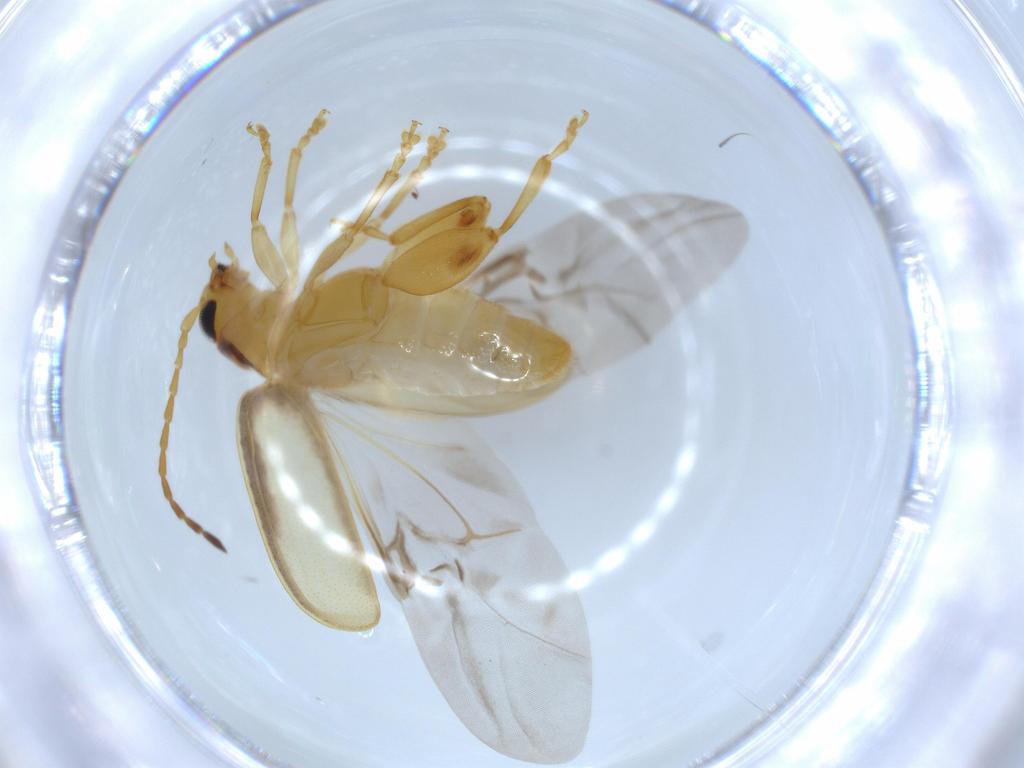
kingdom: Animalia
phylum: Arthropoda
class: Insecta
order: Coleoptera
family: Chrysomelidae
